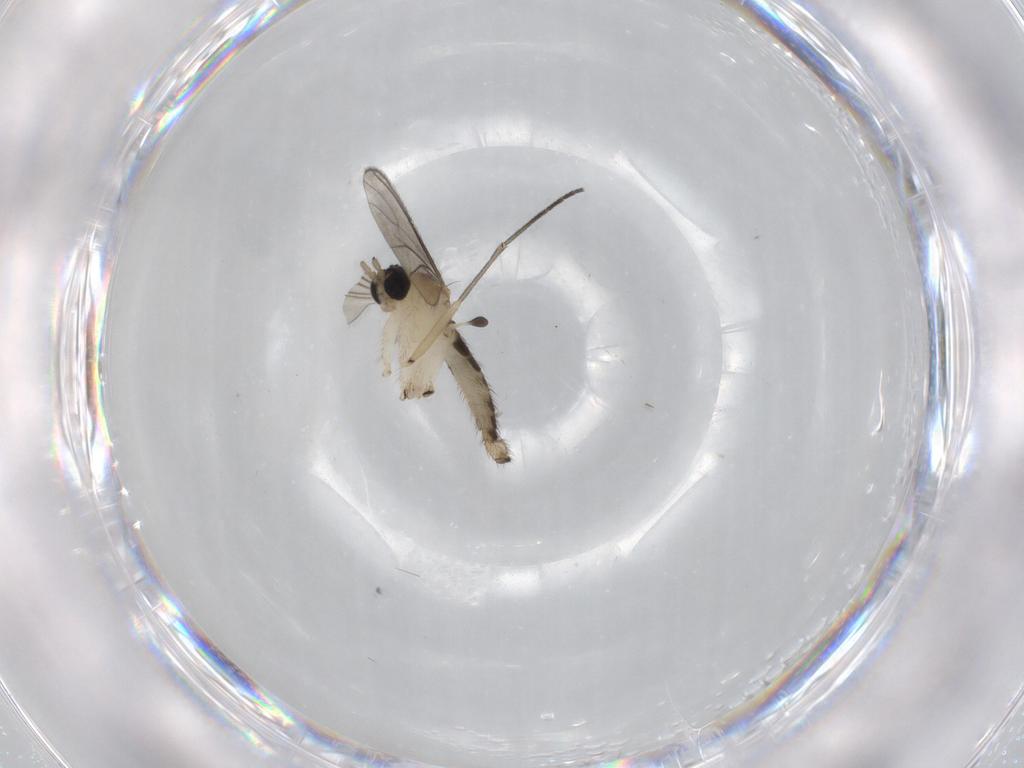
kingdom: Animalia
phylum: Arthropoda
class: Insecta
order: Diptera
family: Sciaridae
